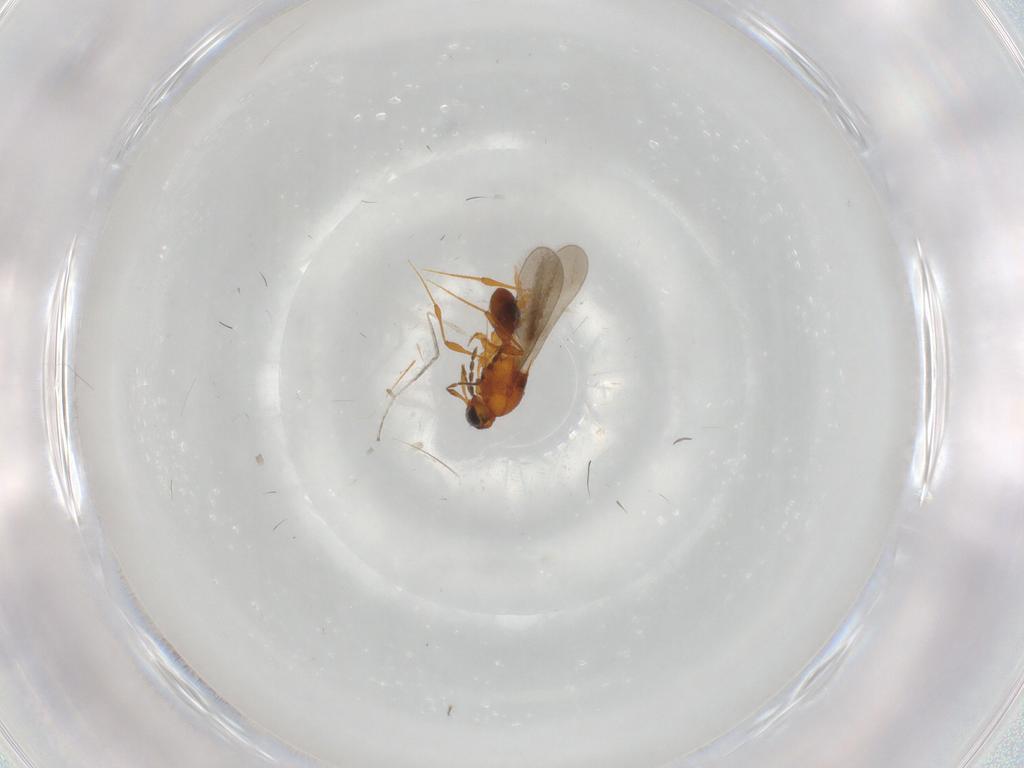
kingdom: Animalia
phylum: Arthropoda
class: Insecta
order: Hymenoptera
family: Platygastridae
